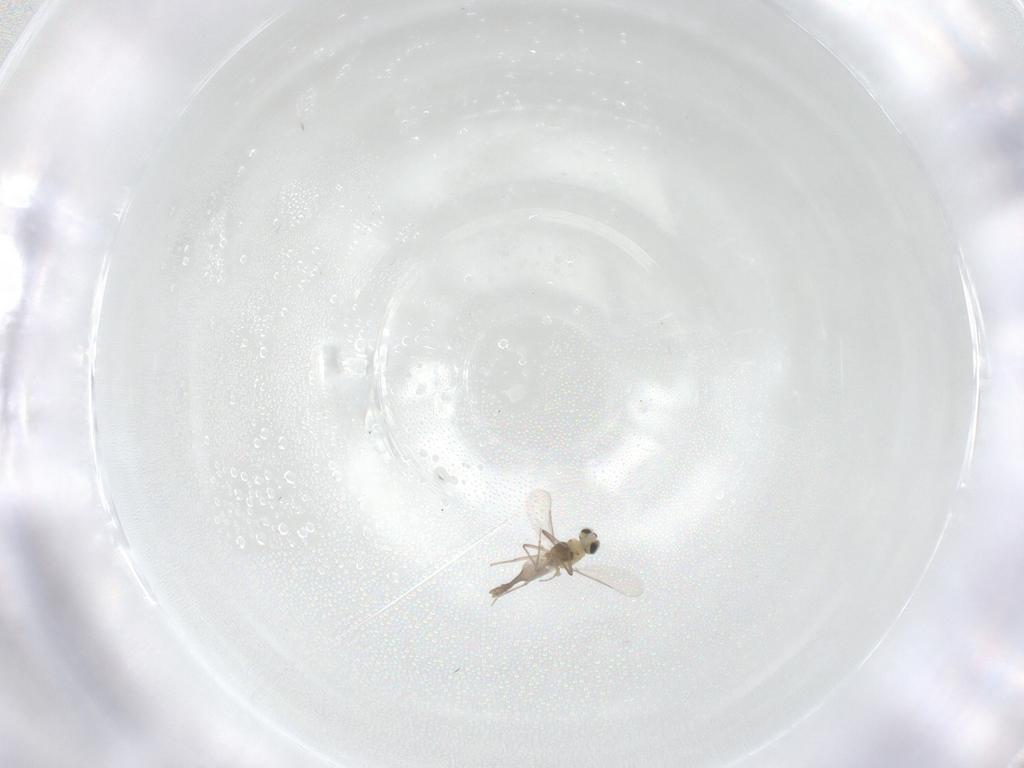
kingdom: Animalia
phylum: Arthropoda
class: Insecta
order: Diptera
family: Chironomidae
